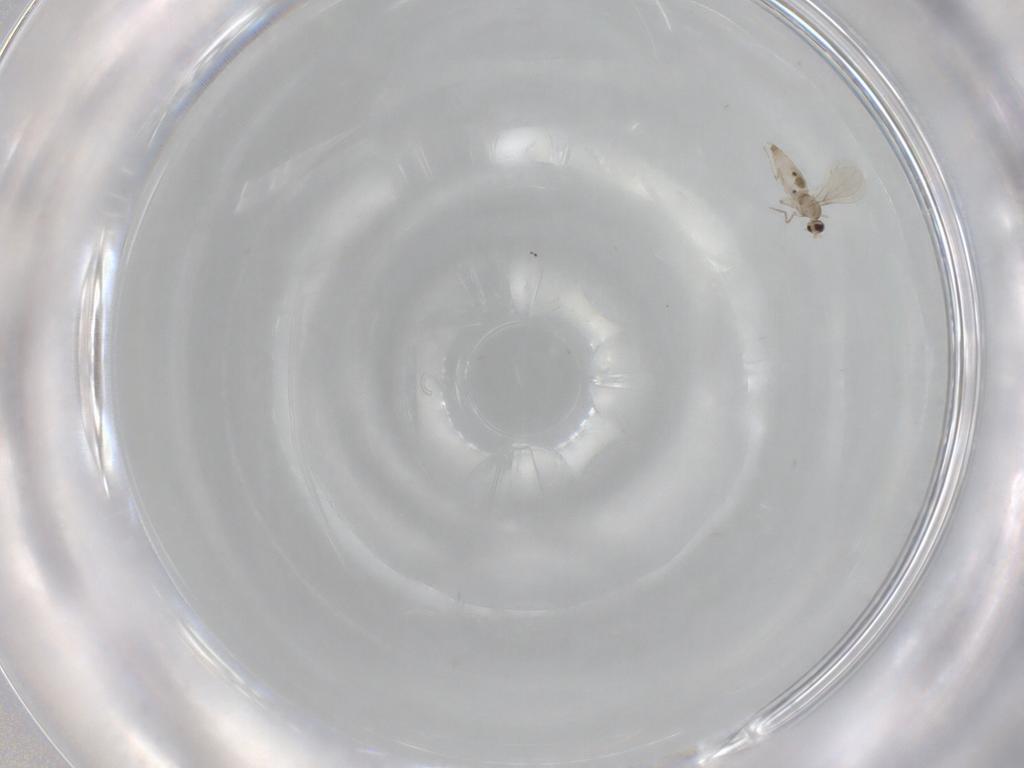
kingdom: Animalia
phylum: Arthropoda
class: Insecta
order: Diptera
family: Cecidomyiidae
